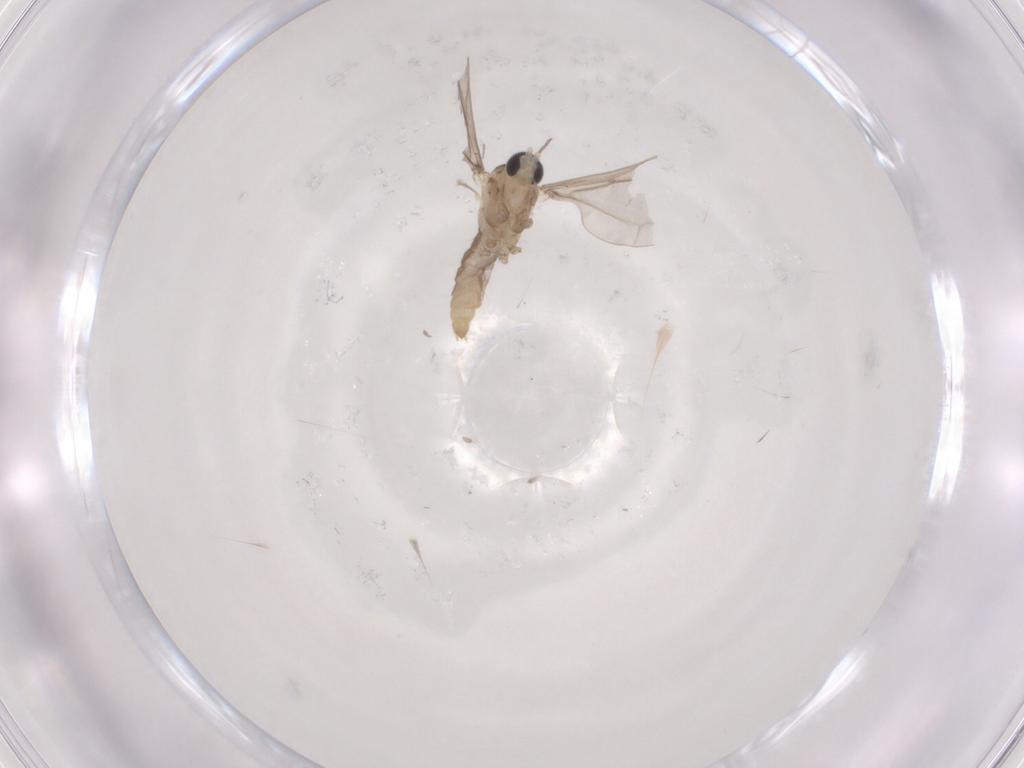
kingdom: Animalia
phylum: Arthropoda
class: Insecta
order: Diptera
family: Cecidomyiidae
